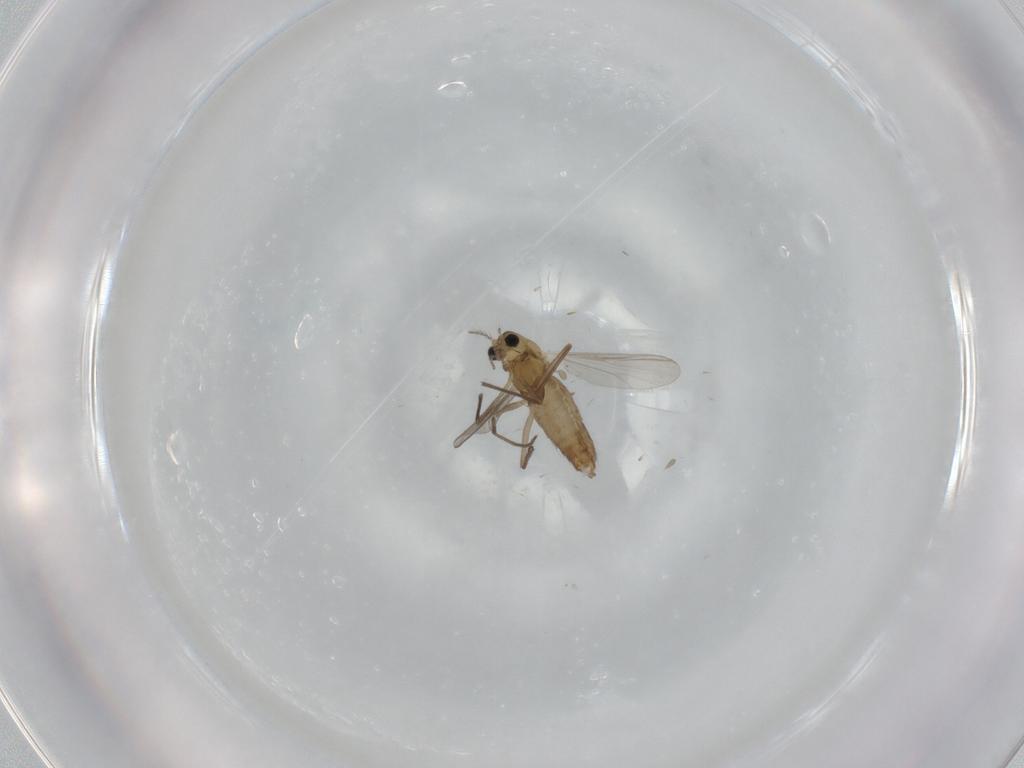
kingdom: Animalia
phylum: Arthropoda
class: Insecta
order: Diptera
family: Chironomidae
